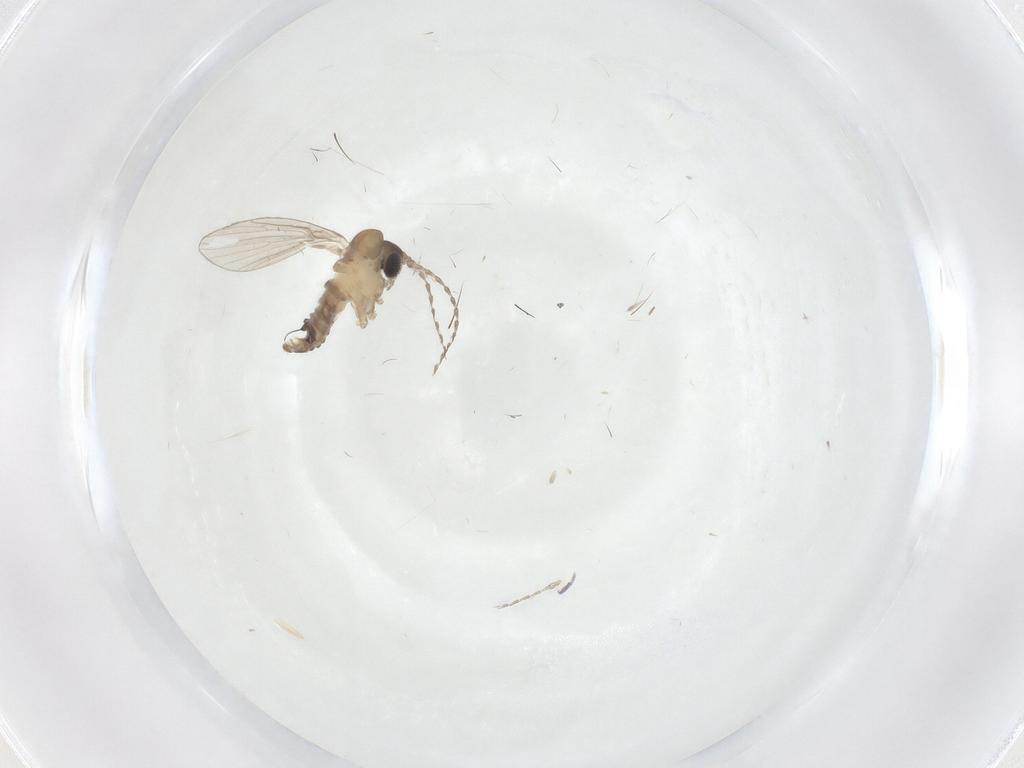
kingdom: Animalia
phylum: Arthropoda
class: Insecta
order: Diptera
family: Psychodidae
